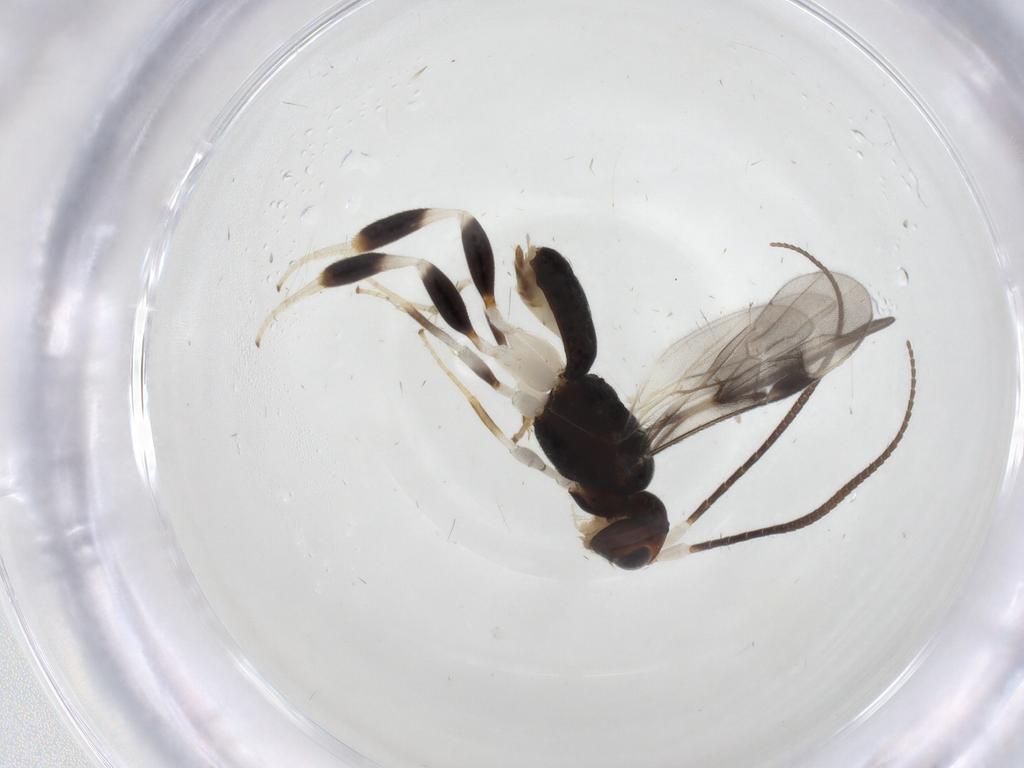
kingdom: Animalia
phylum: Arthropoda
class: Insecta
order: Hymenoptera
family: Braconidae
